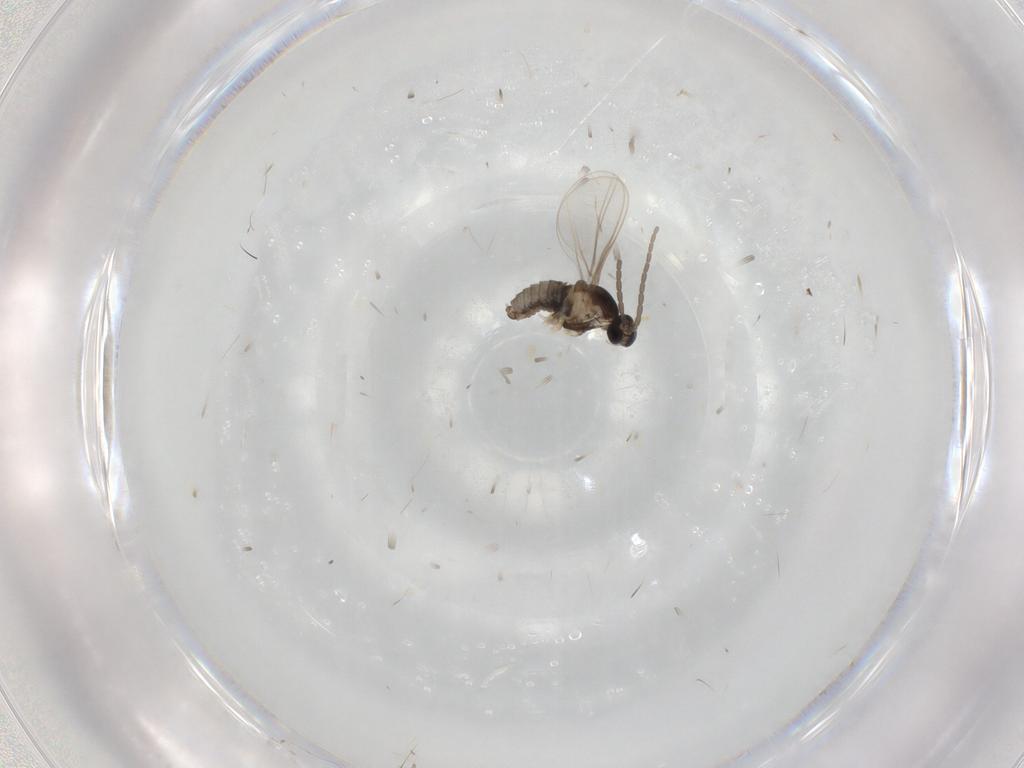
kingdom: Animalia
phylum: Arthropoda
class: Insecta
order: Diptera
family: Cecidomyiidae
